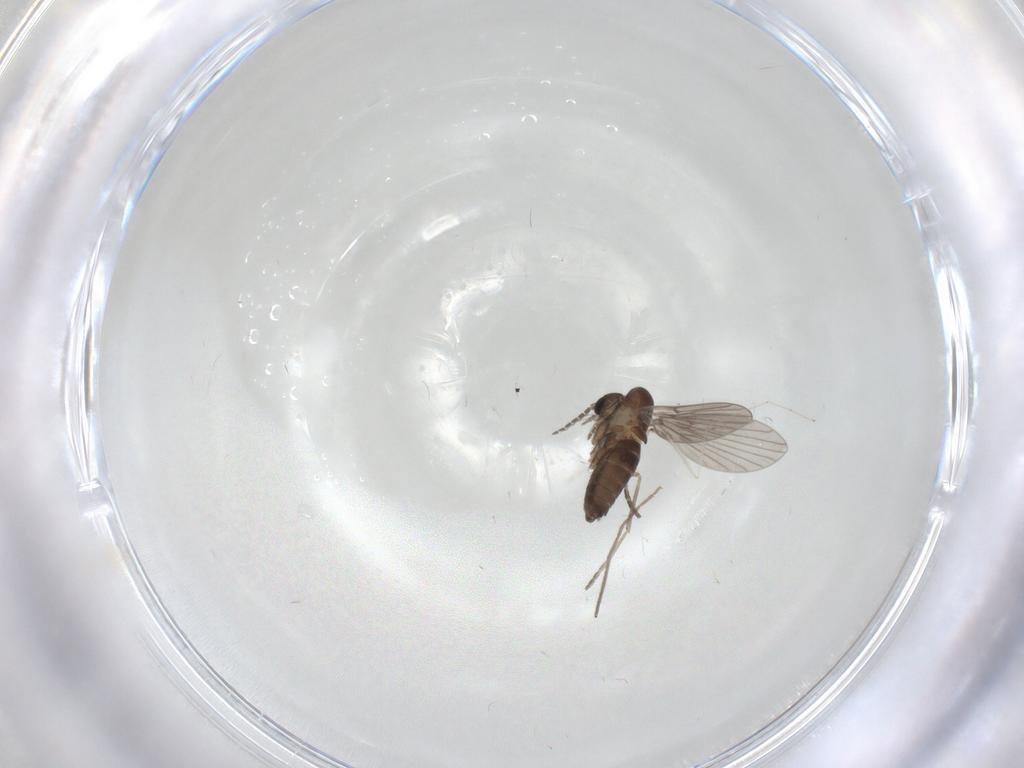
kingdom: Animalia
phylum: Arthropoda
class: Insecta
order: Diptera
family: Chironomidae
